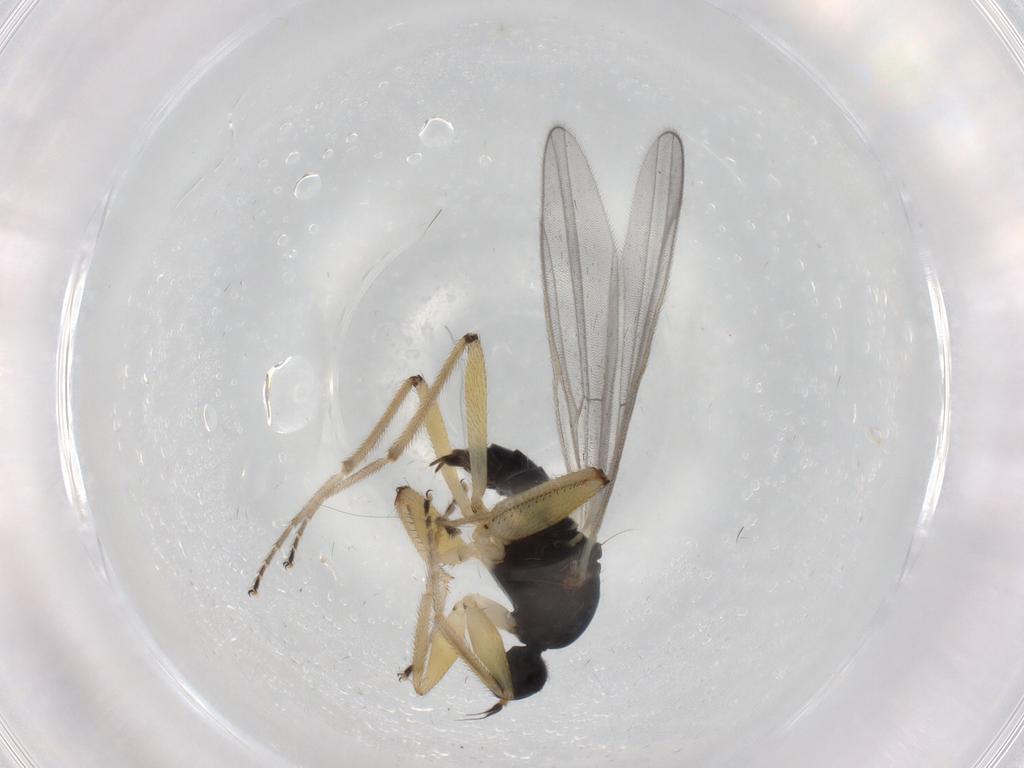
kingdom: Animalia
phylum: Arthropoda
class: Insecta
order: Diptera
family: Hybotidae
